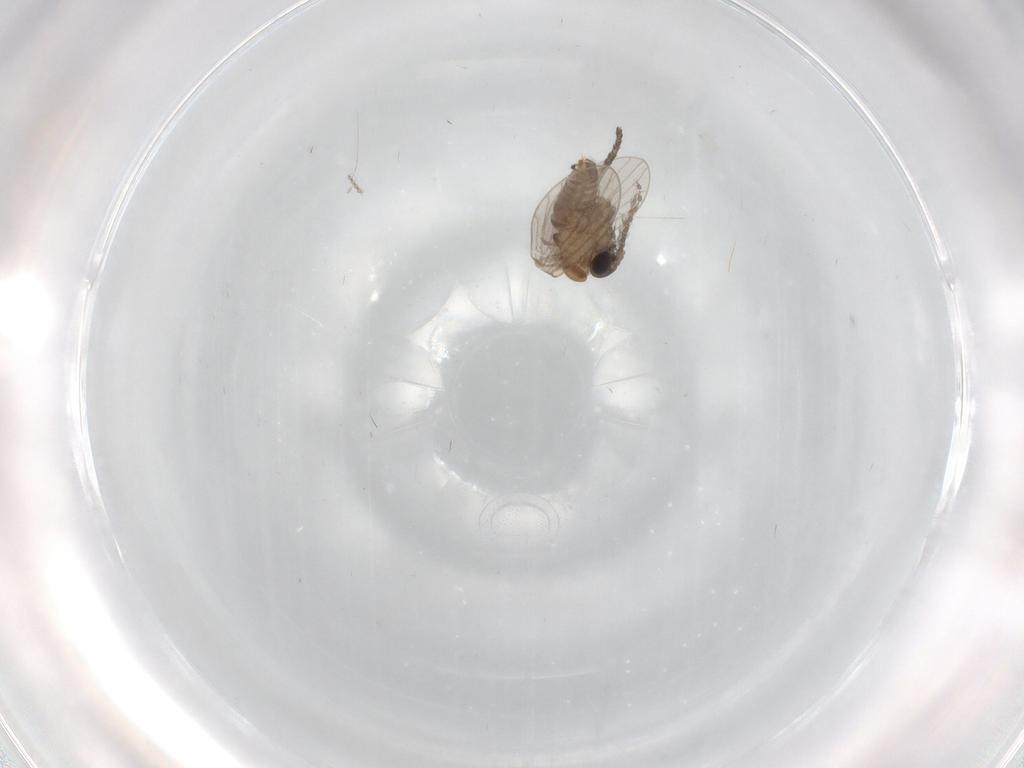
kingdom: Animalia
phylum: Arthropoda
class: Insecta
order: Diptera
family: Cecidomyiidae
